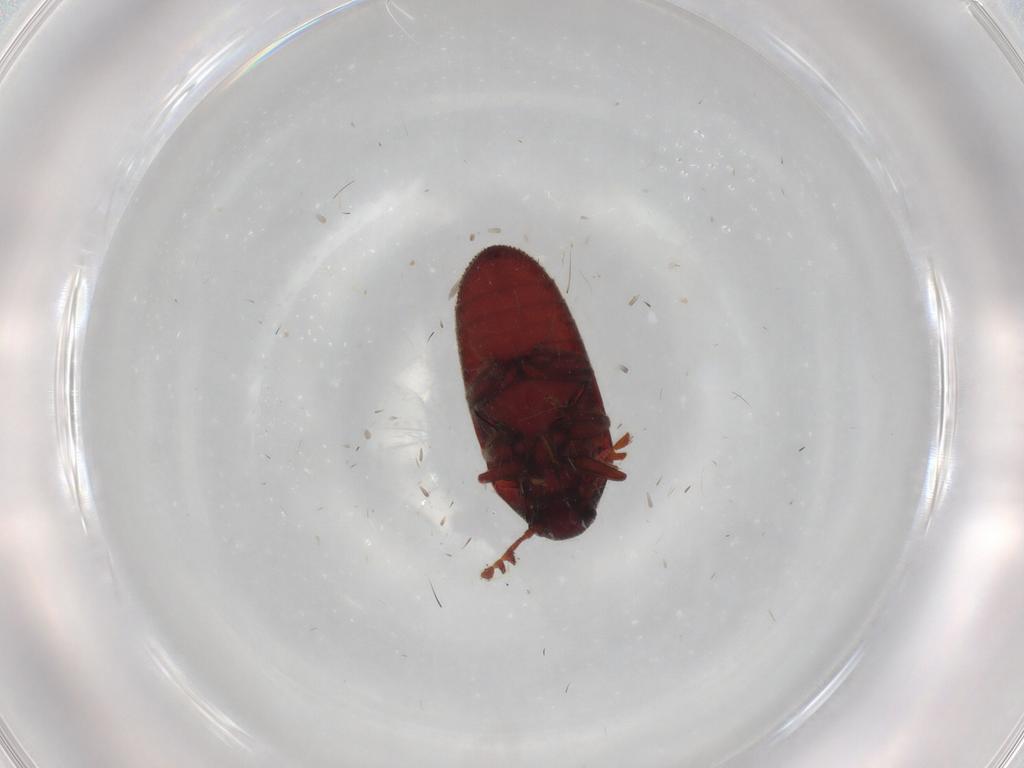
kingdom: Animalia
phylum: Arthropoda
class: Insecta
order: Coleoptera
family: Throscidae
